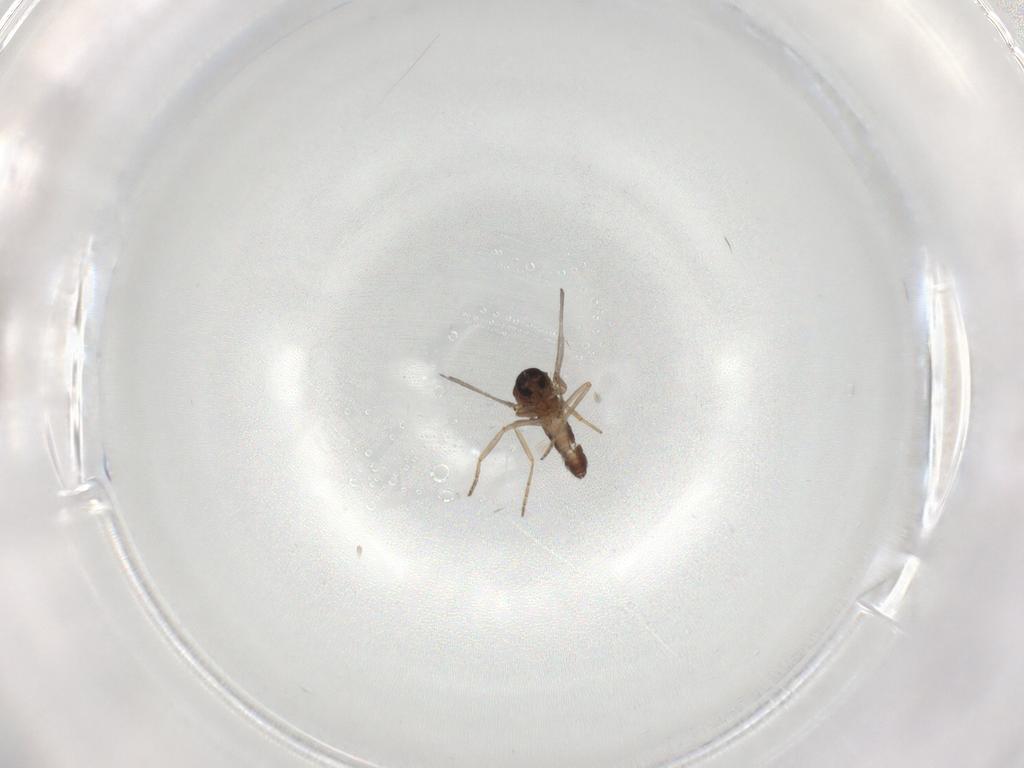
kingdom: Animalia
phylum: Arthropoda
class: Insecta
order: Diptera
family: Ceratopogonidae
